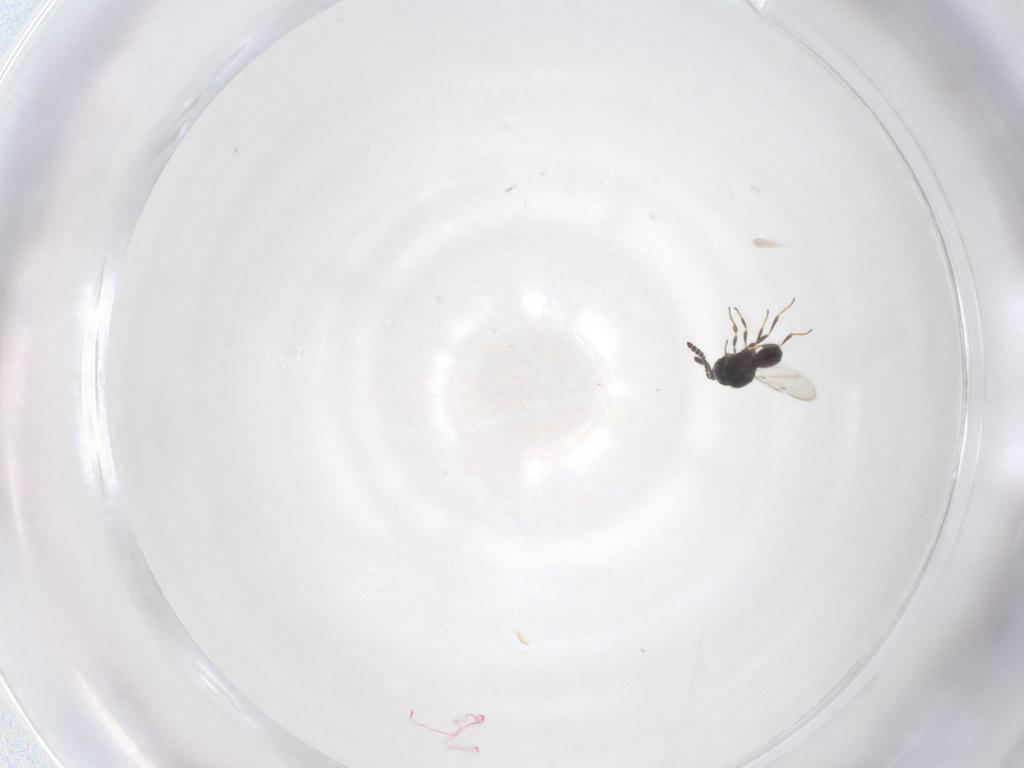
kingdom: Animalia
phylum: Arthropoda
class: Insecta
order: Hymenoptera
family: Scelionidae
